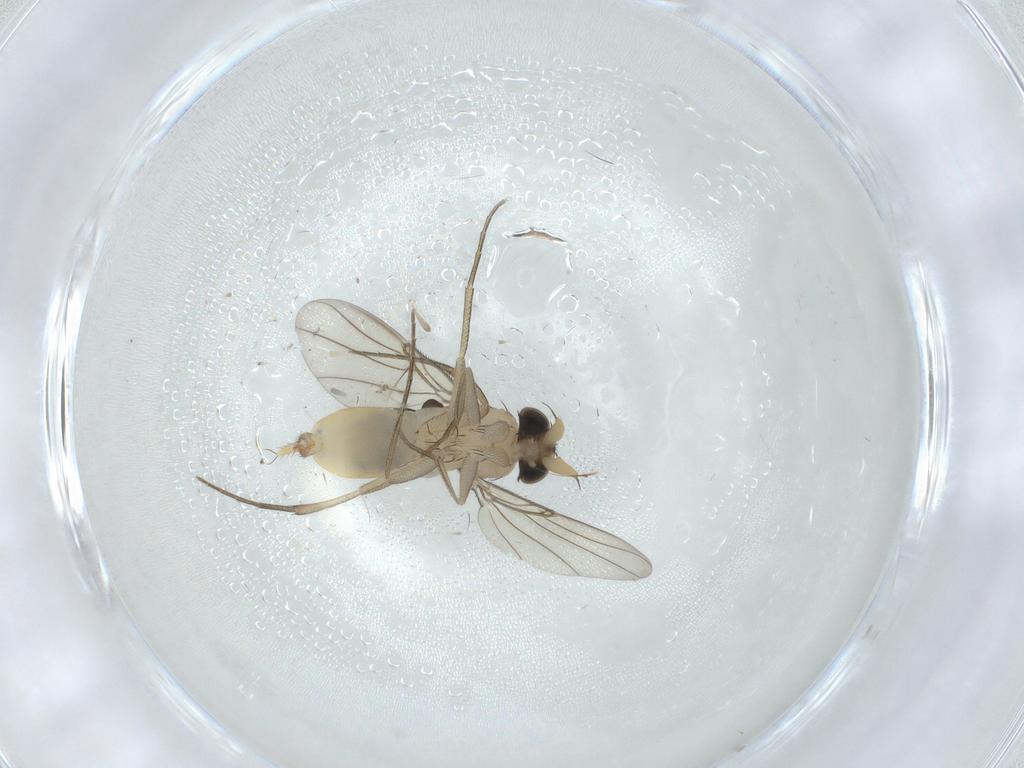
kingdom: Animalia
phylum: Arthropoda
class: Insecta
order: Diptera
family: Phoridae
